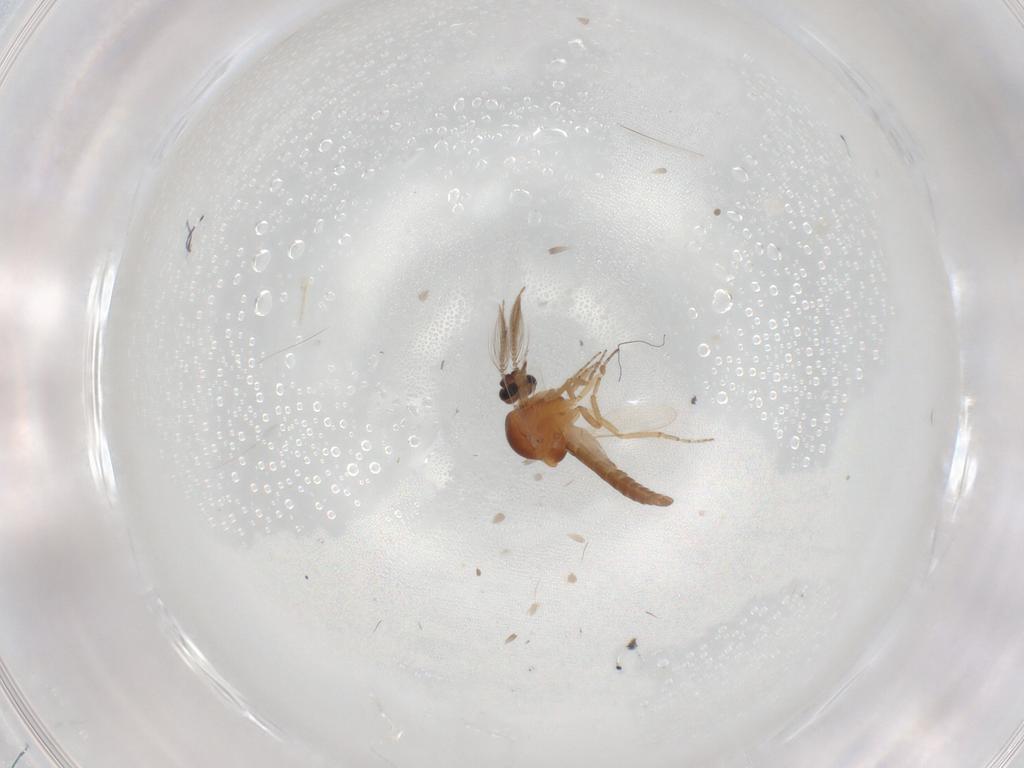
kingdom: Animalia
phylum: Arthropoda
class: Insecta
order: Diptera
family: Ceratopogonidae
